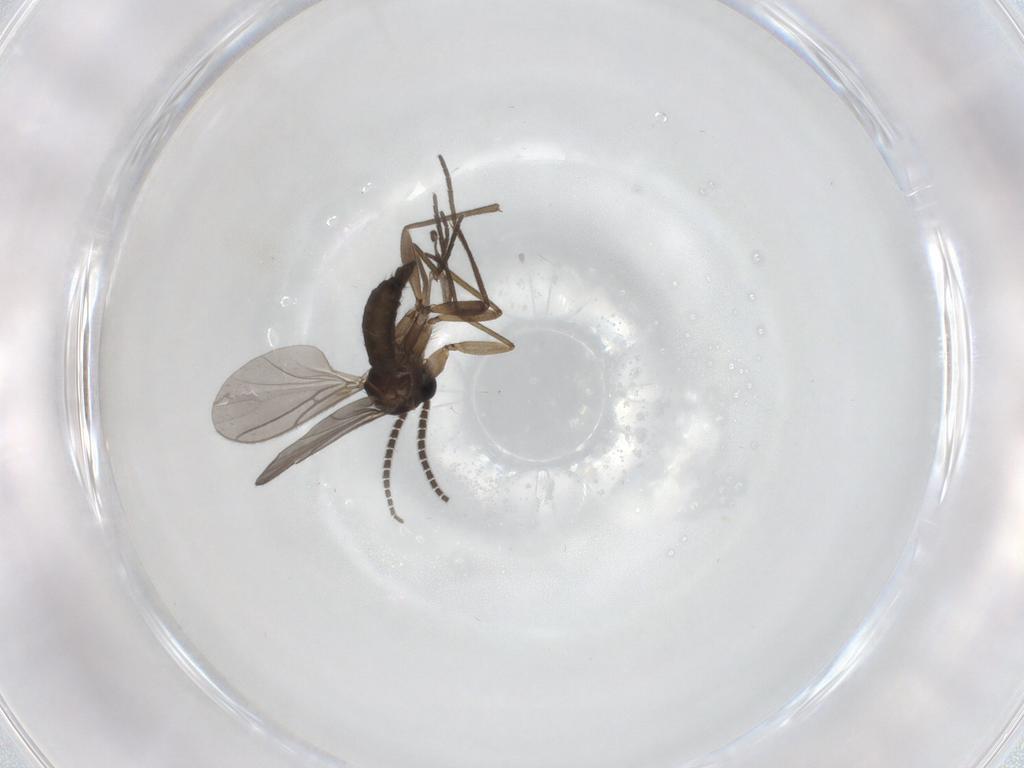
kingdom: Animalia
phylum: Arthropoda
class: Insecta
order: Diptera
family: Sciaridae
